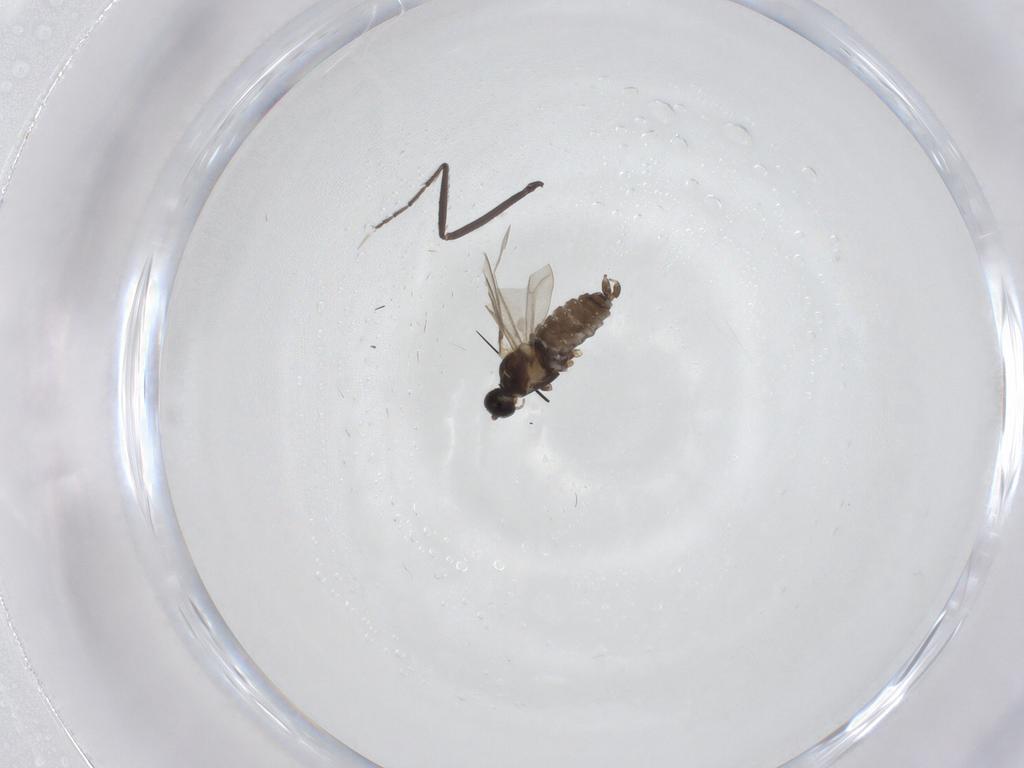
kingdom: Animalia
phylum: Arthropoda
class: Insecta
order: Diptera
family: Cecidomyiidae
